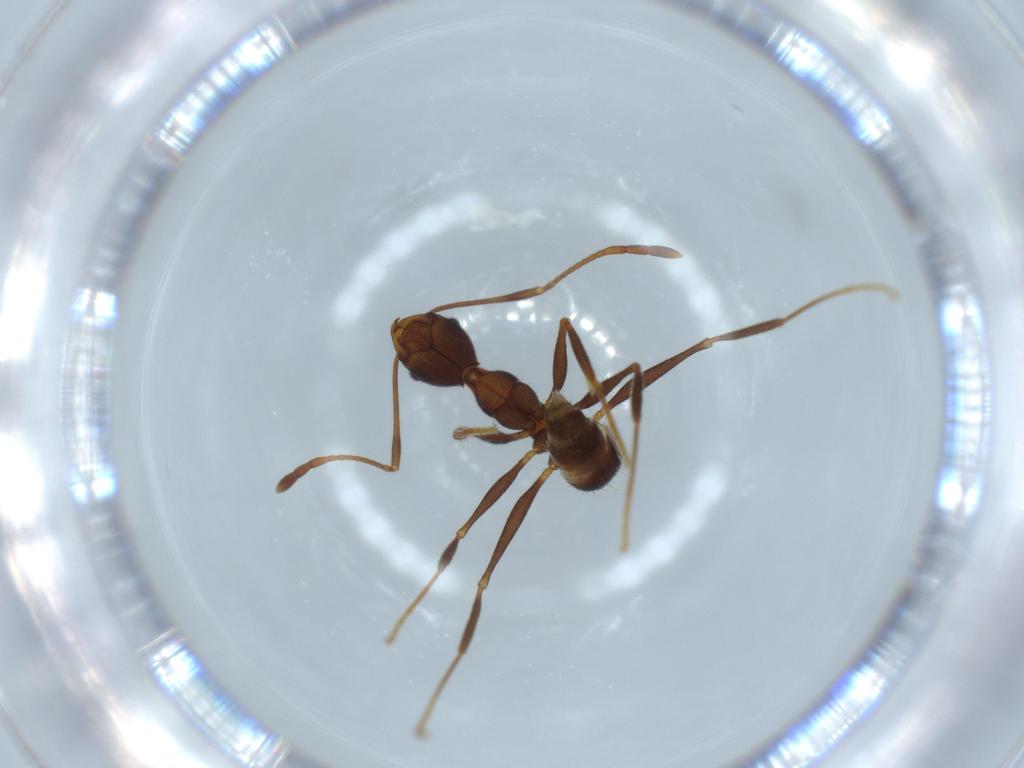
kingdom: Animalia
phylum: Arthropoda
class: Insecta
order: Hymenoptera
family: Formicidae
